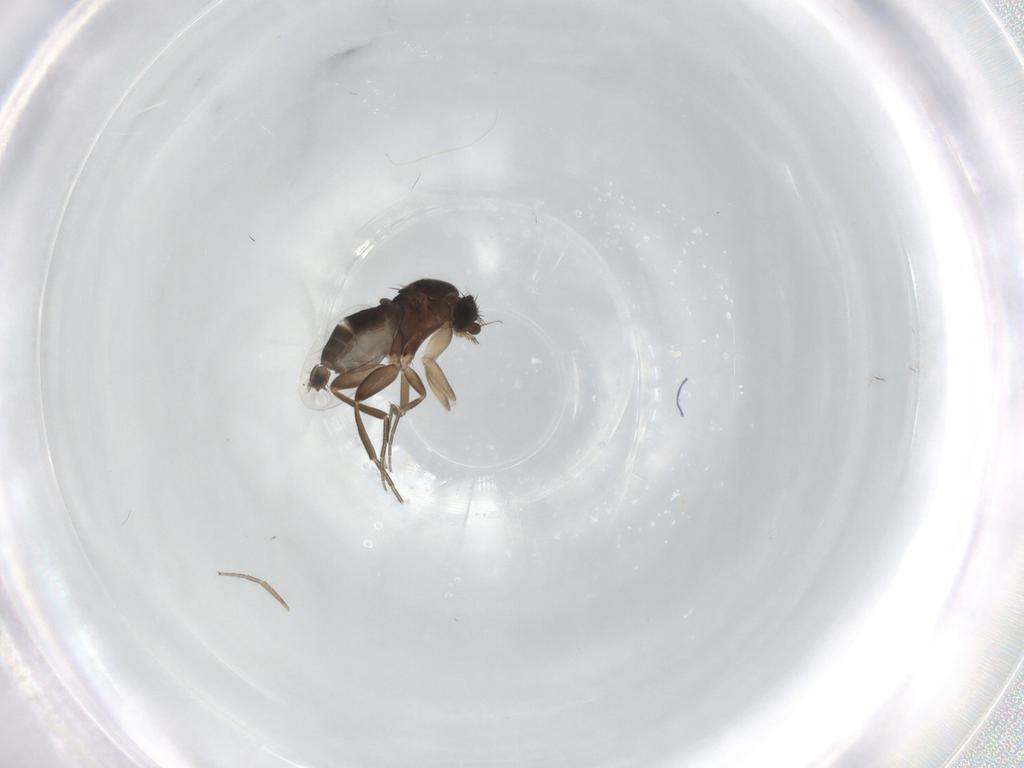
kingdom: Animalia
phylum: Arthropoda
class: Insecta
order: Diptera
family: Phoridae
